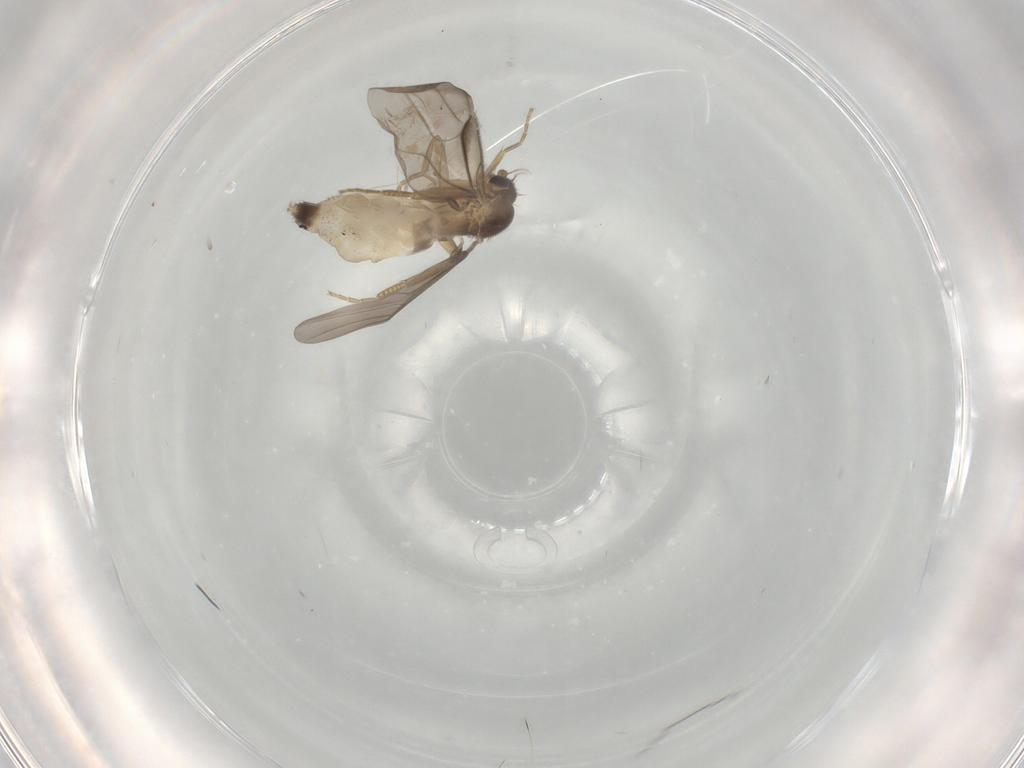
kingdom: Animalia
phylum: Arthropoda
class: Insecta
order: Diptera
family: Phoridae
